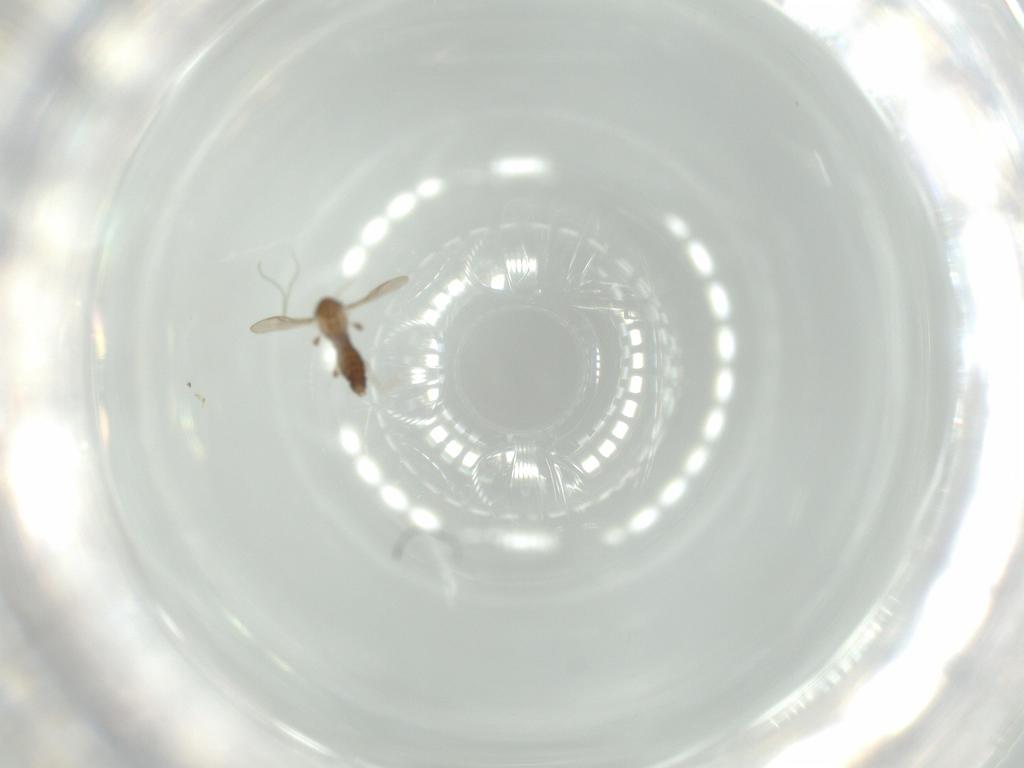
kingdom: Animalia
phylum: Arthropoda
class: Insecta
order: Diptera
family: Chironomidae
